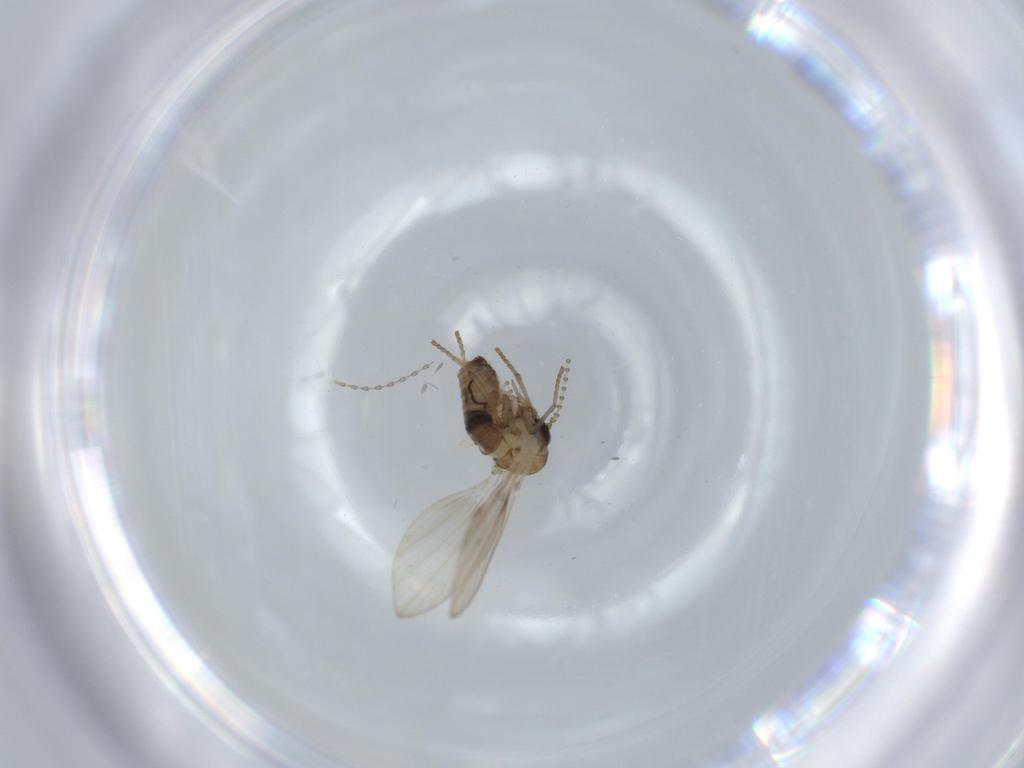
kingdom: Animalia
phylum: Arthropoda
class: Insecta
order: Diptera
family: Psychodidae
